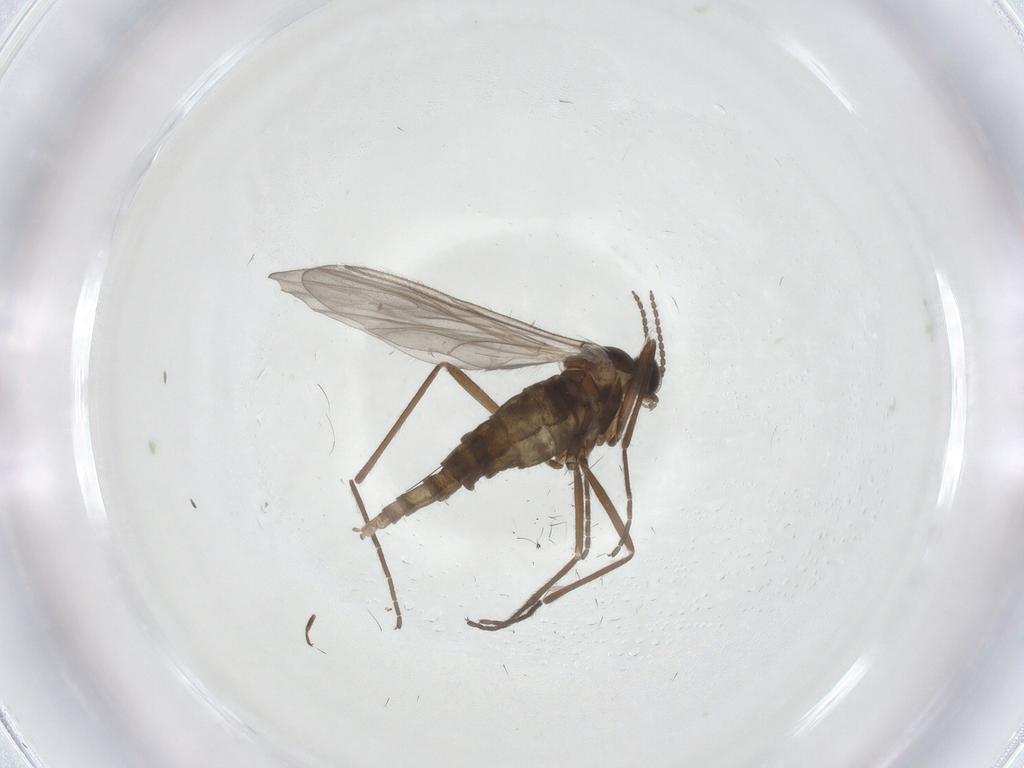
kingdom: Animalia
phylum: Arthropoda
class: Insecta
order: Diptera
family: Cecidomyiidae
